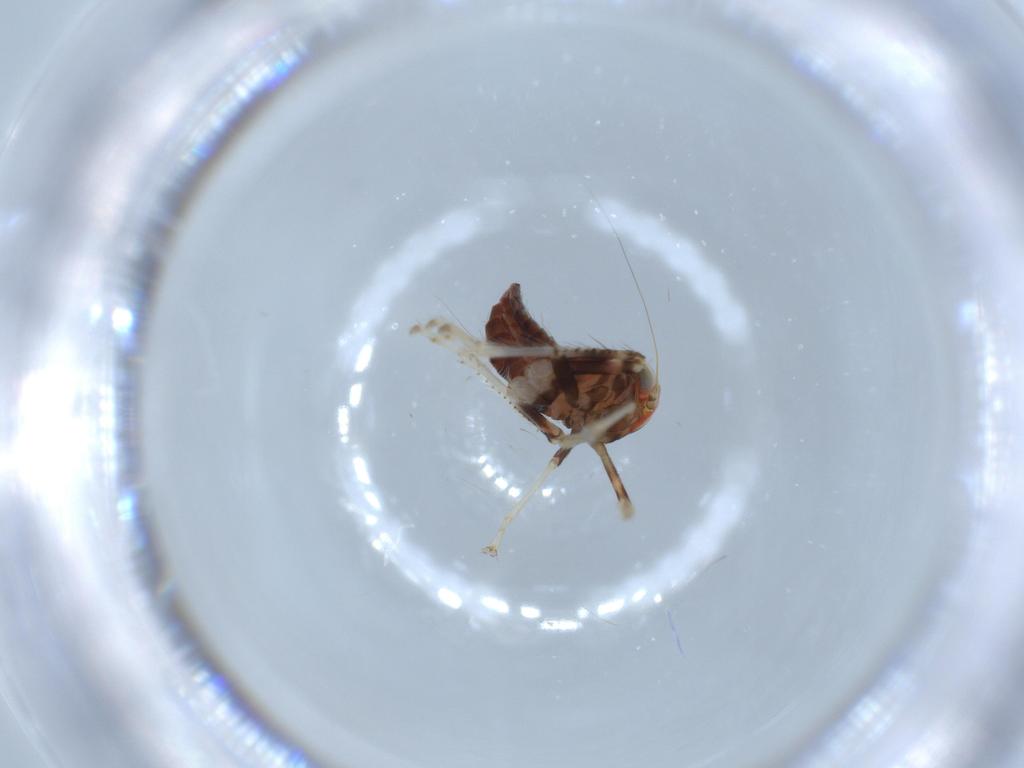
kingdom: Animalia
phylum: Arthropoda
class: Insecta
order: Hemiptera
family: Cicadellidae
